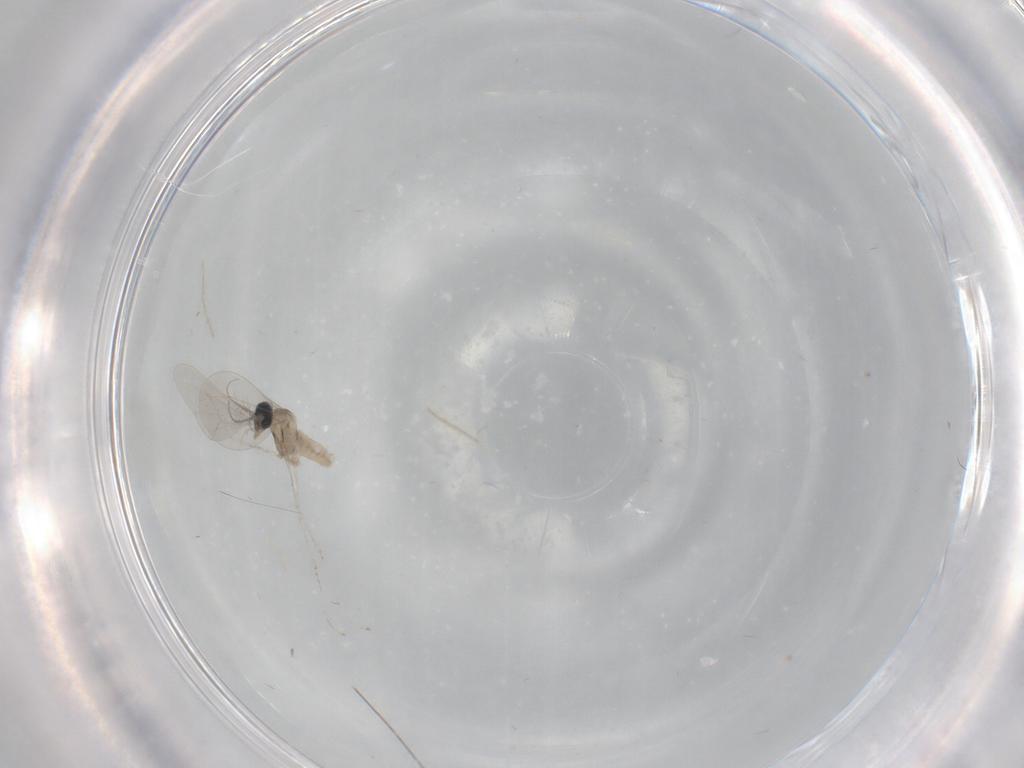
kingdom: Animalia
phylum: Arthropoda
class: Insecta
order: Diptera
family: Cecidomyiidae
